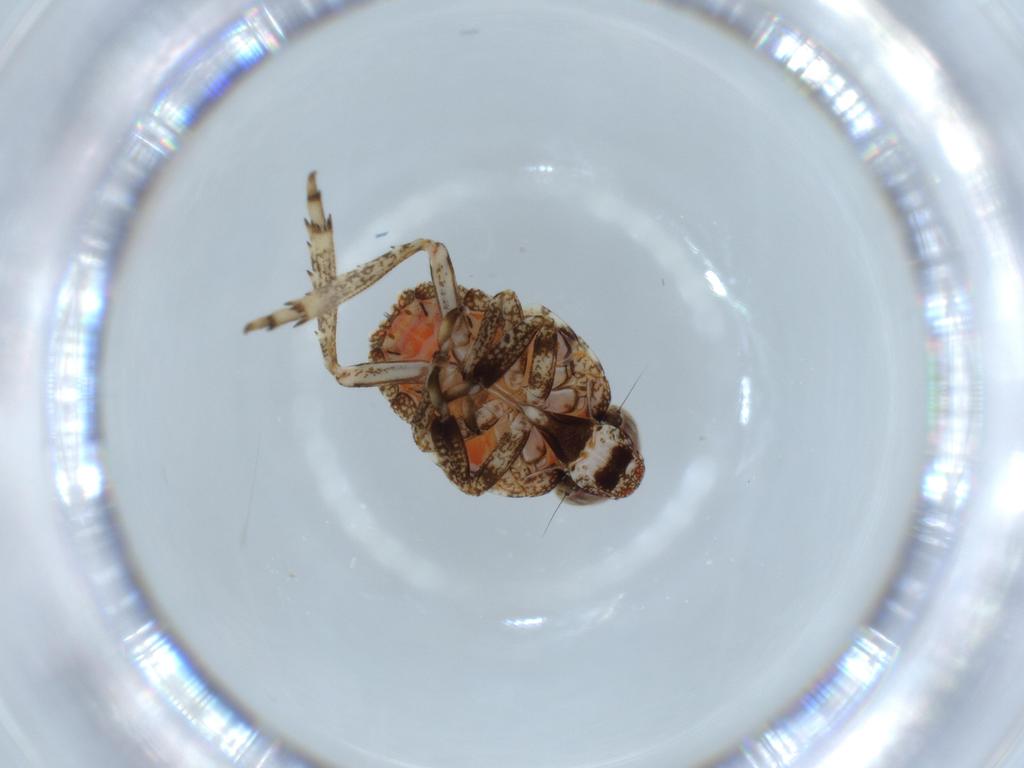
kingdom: Animalia
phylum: Arthropoda
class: Insecta
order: Hemiptera
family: Issidae
